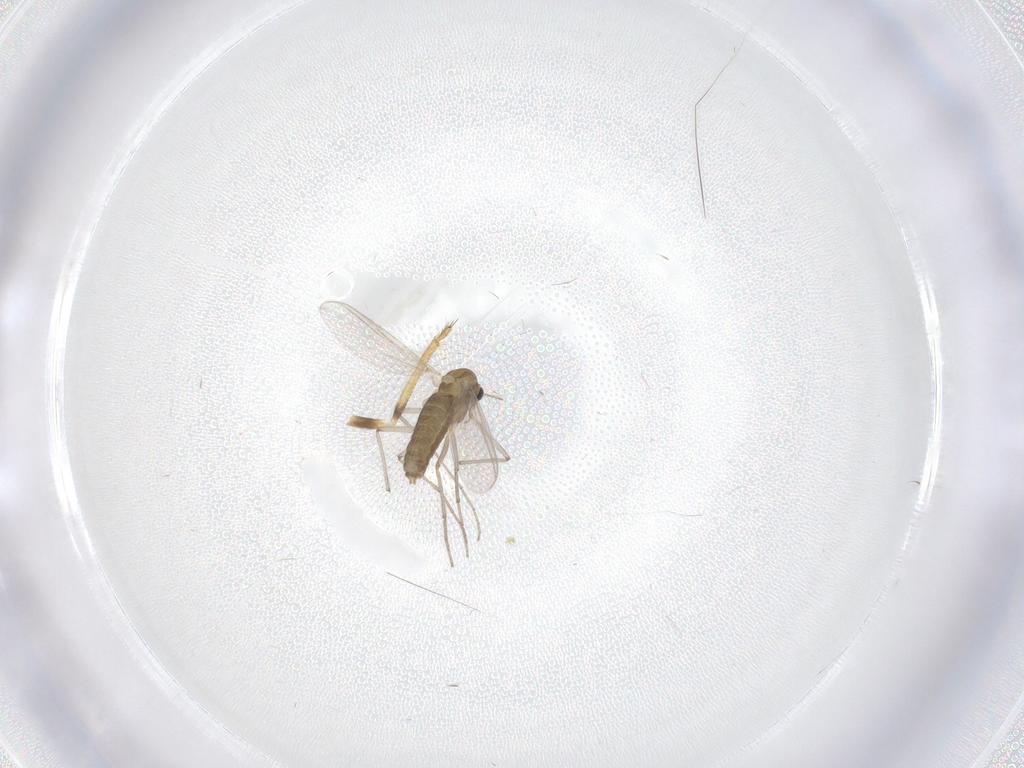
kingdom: Animalia
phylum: Arthropoda
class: Insecta
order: Diptera
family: Chironomidae
